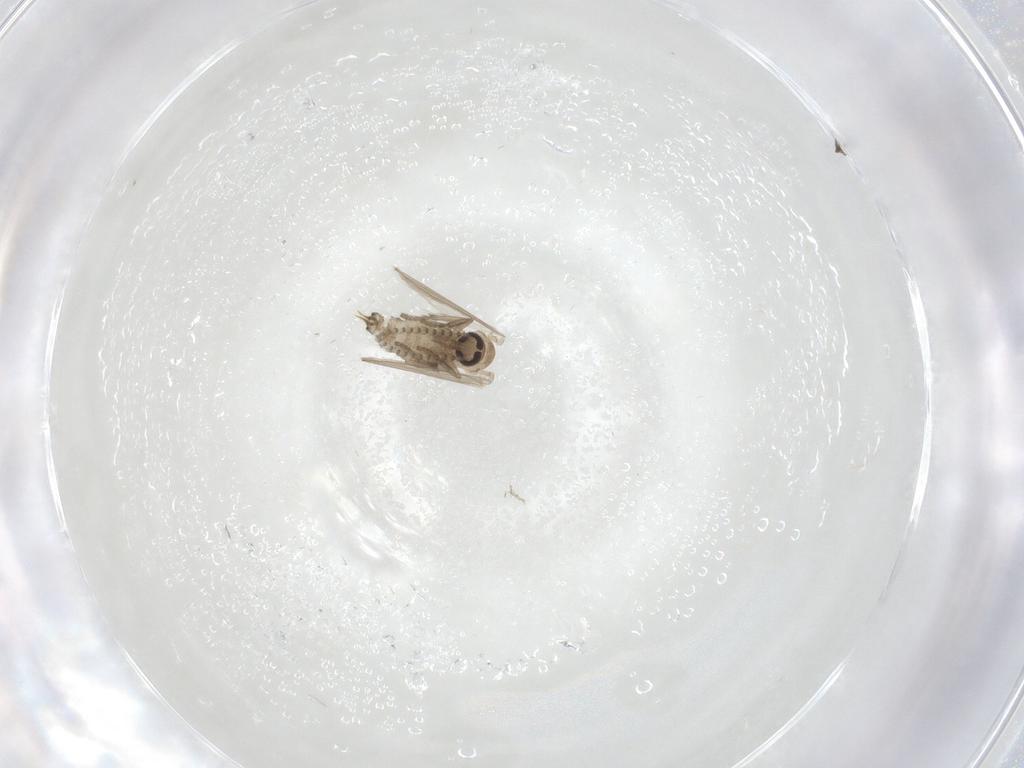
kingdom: Animalia
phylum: Arthropoda
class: Insecta
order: Diptera
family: Psychodidae
